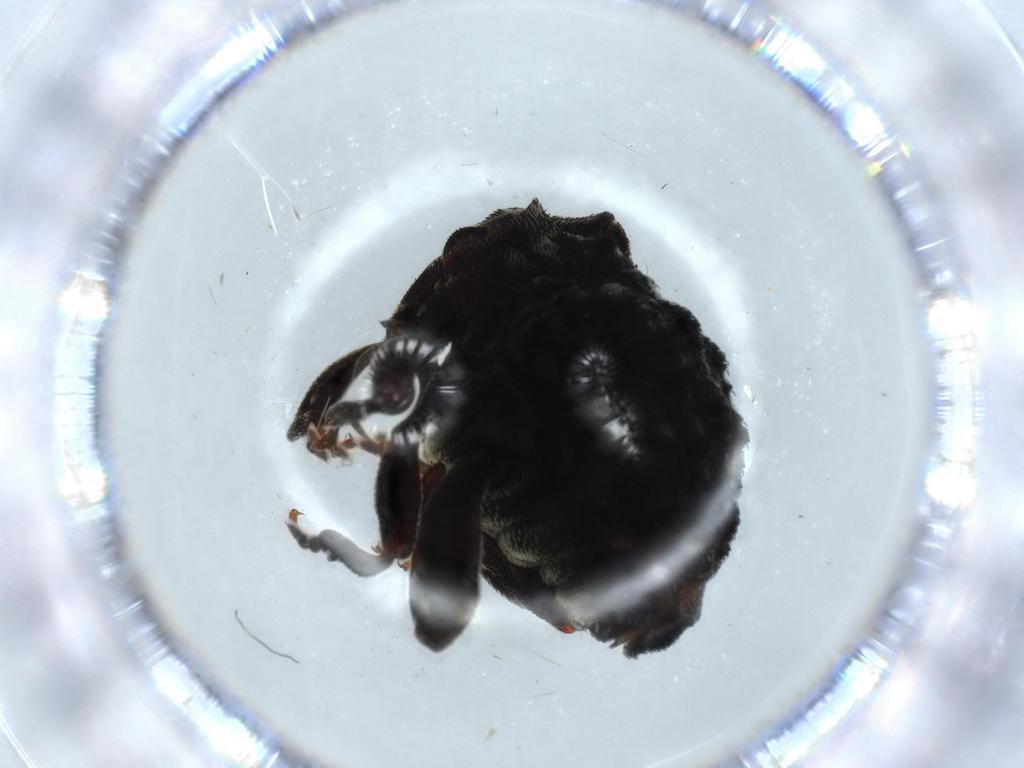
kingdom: Animalia
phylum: Arthropoda
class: Insecta
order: Coleoptera
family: Curculionidae
